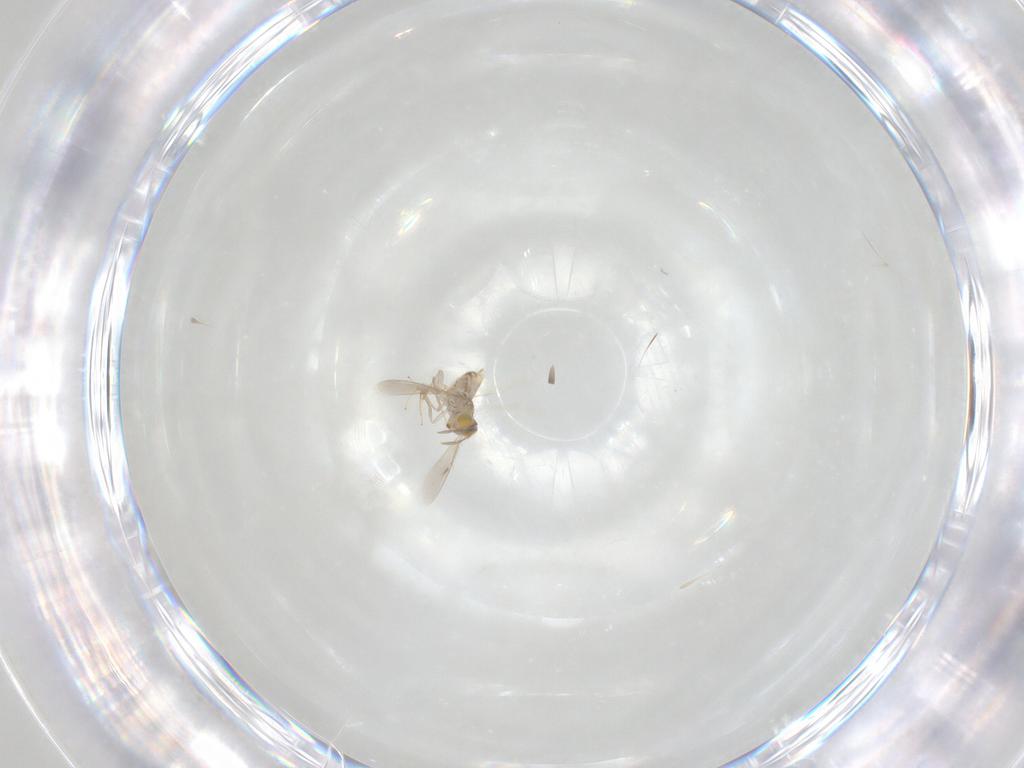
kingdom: Animalia
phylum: Arthropoda
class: Insecta
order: Hymenoptera
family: Aphelinidae
